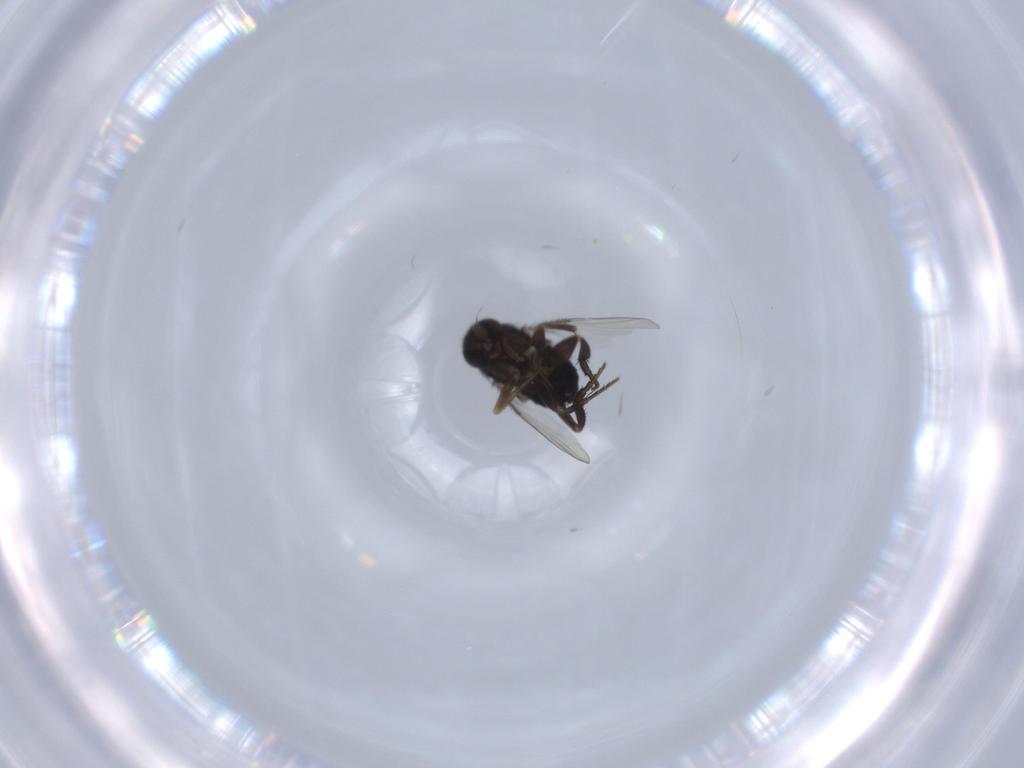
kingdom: Animalia
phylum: Arthropoda
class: Insecta
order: Diptera
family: Phoridae
